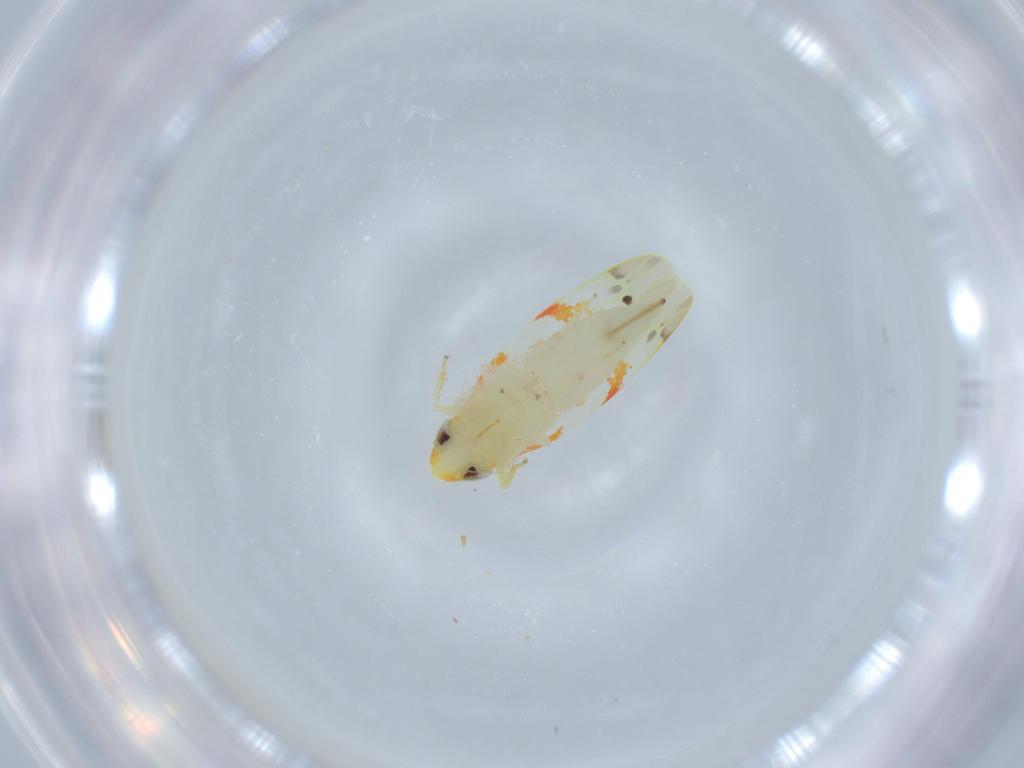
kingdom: Animalia
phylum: Arthropoda
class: Insecta
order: Hemiptera
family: Cicadellidae
